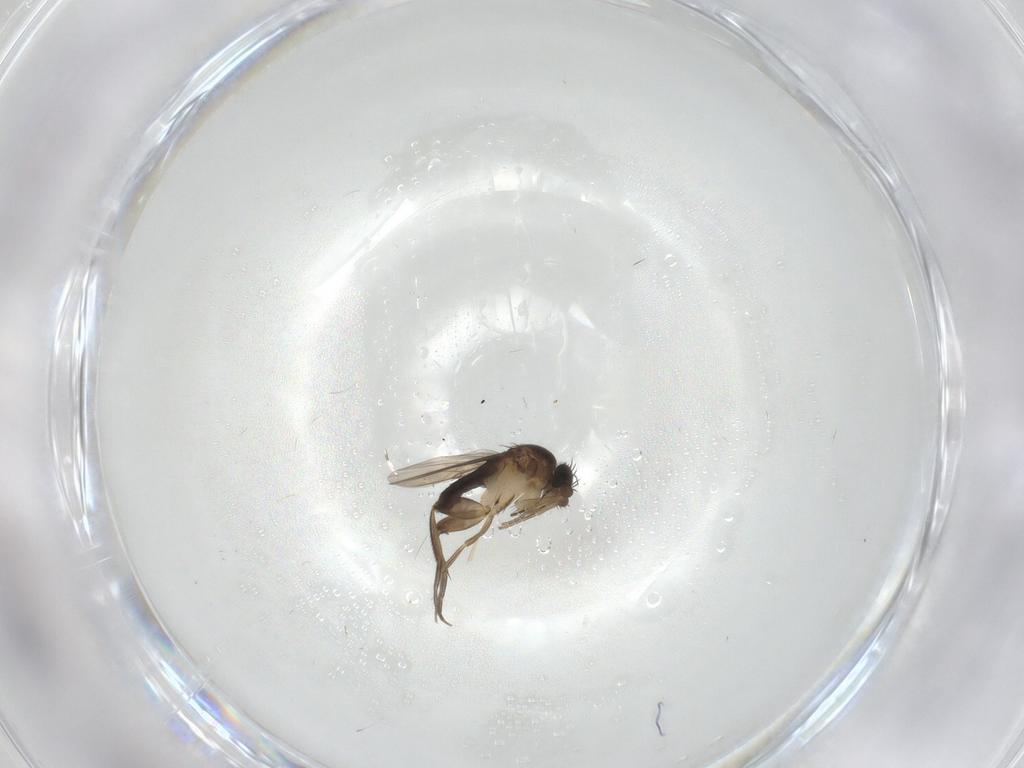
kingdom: Animalia
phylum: Arthropoda
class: Insecta
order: Diptera
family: Phoridae
